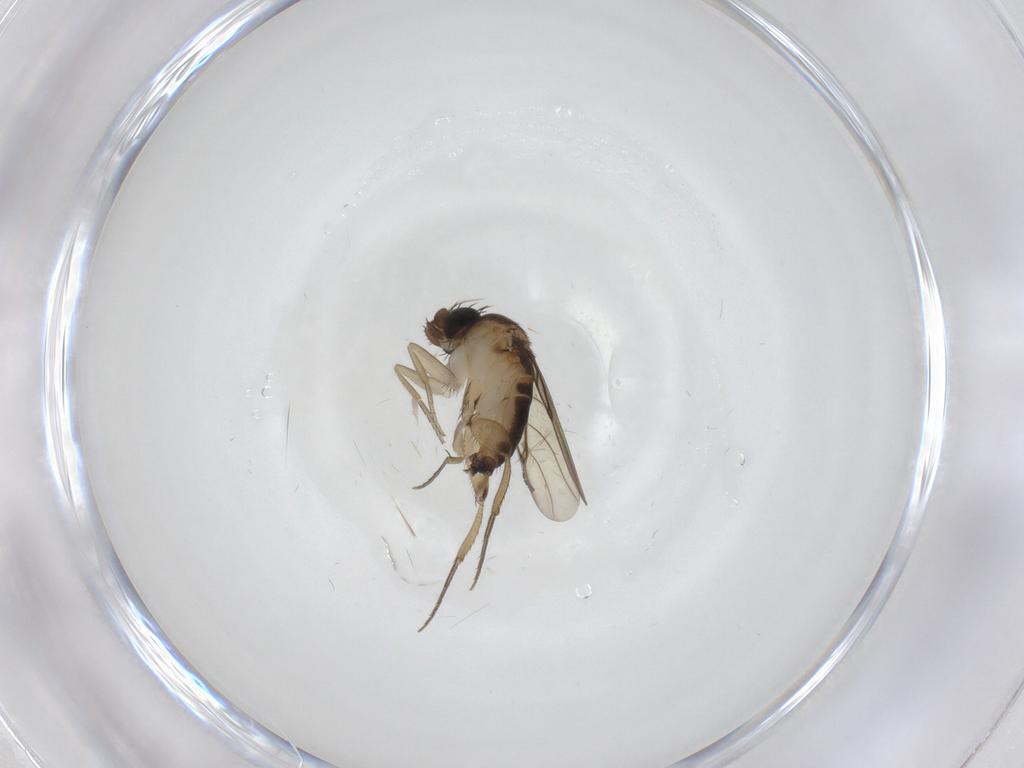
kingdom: Animalia
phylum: Arthropoda
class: Insecta
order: Diptera
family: Phoridae
